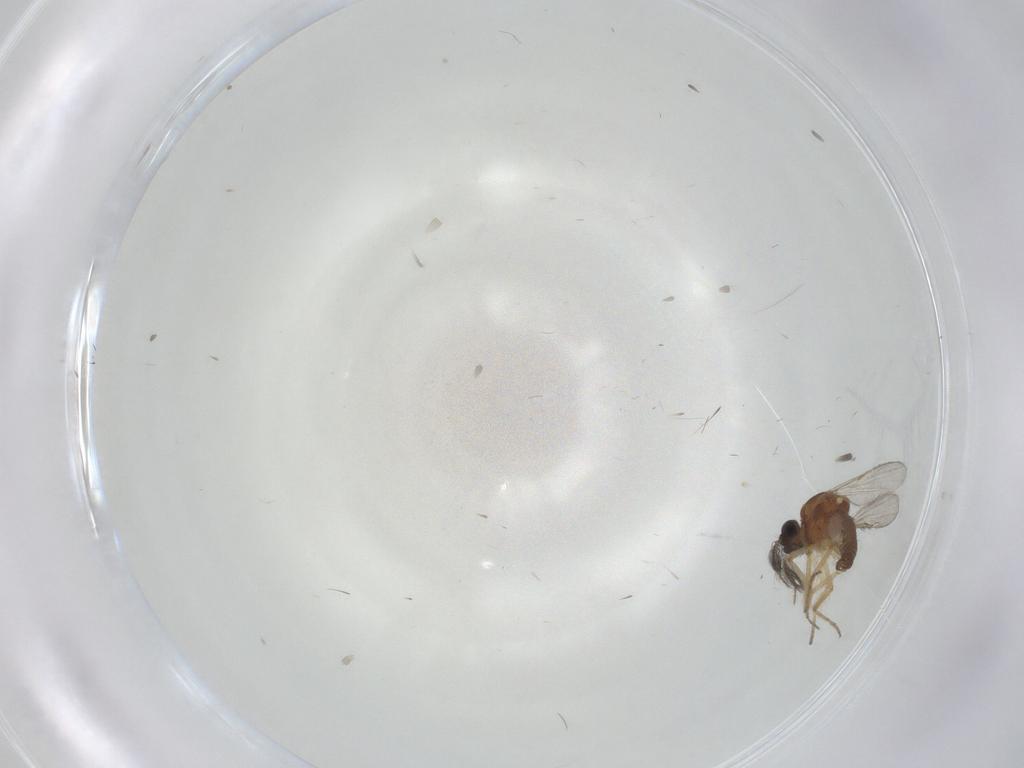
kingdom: Animalia
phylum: Arthropoda
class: Insecta
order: Diptera
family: Ceratopogonidae
